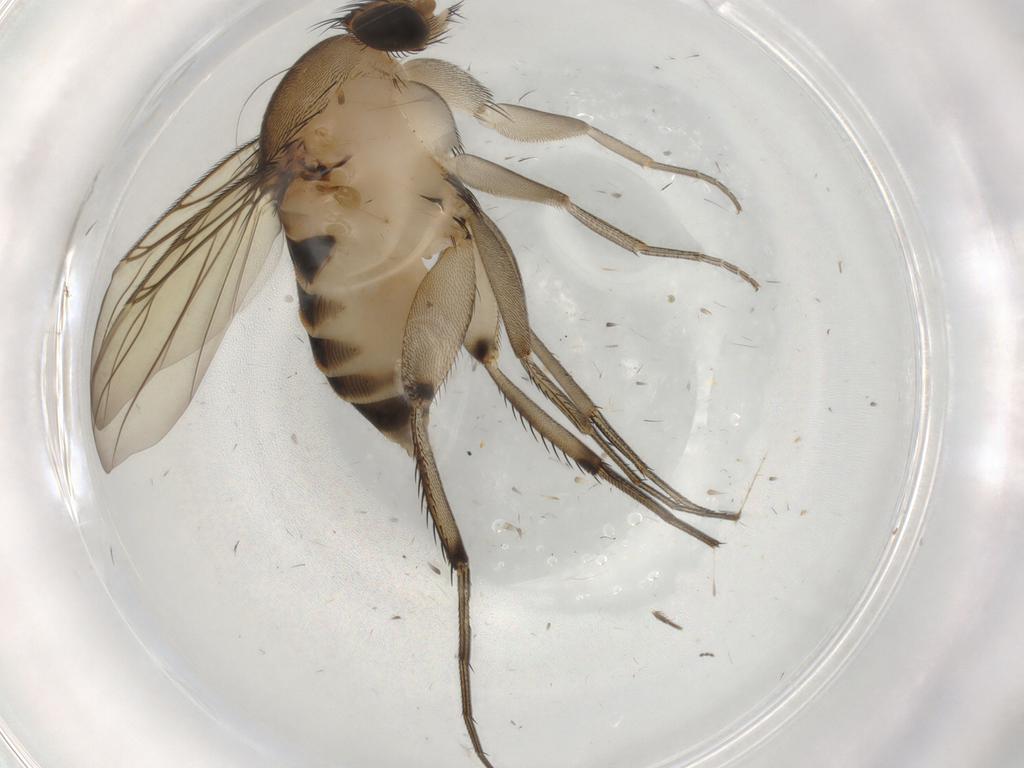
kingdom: Animalia
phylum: Arthropoda
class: Insecta
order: Diptera
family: Phoridae
